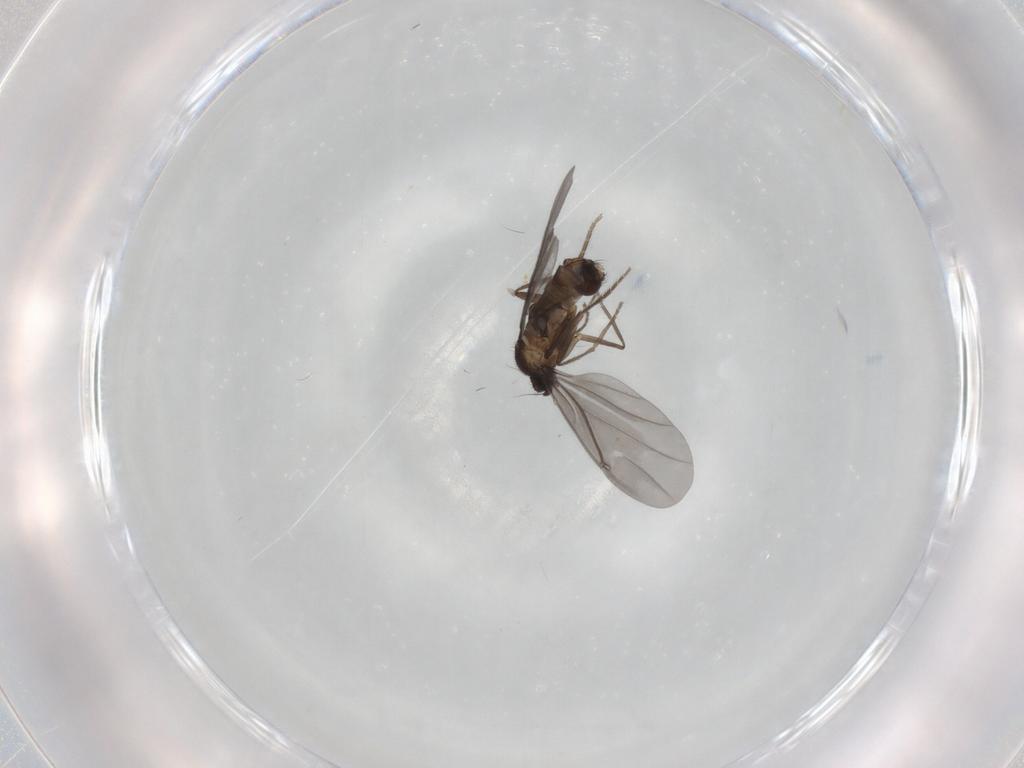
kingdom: Animalia
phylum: Arthropoda
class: Insecta
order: Diptera
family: Phoridae
